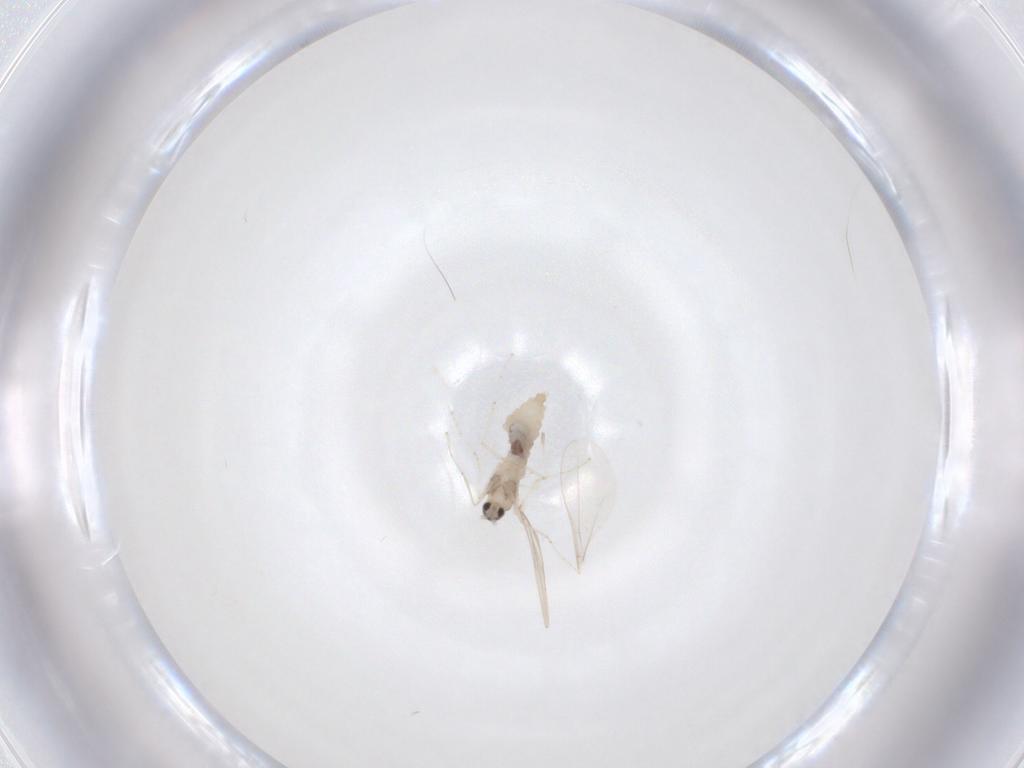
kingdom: Animalia
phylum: Arthropoda
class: Insecta
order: Diptera
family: Cecidomyiidae
